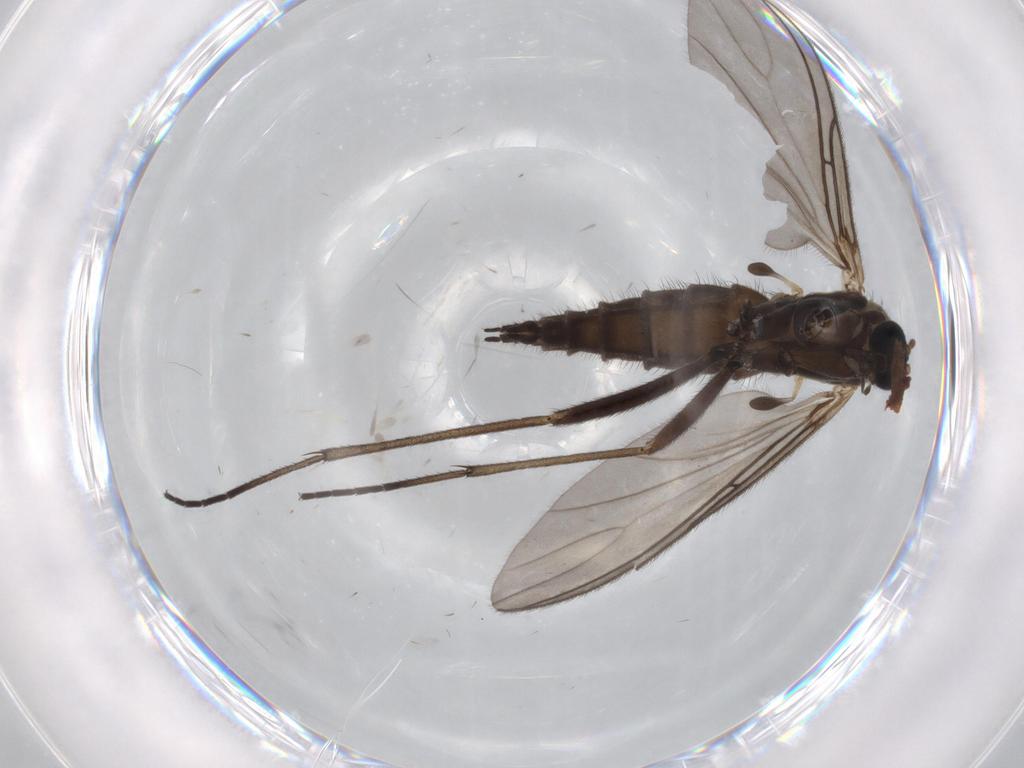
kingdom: Animalia
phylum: Arthropoda
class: Insecta
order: Diptera
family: Sciaridae
